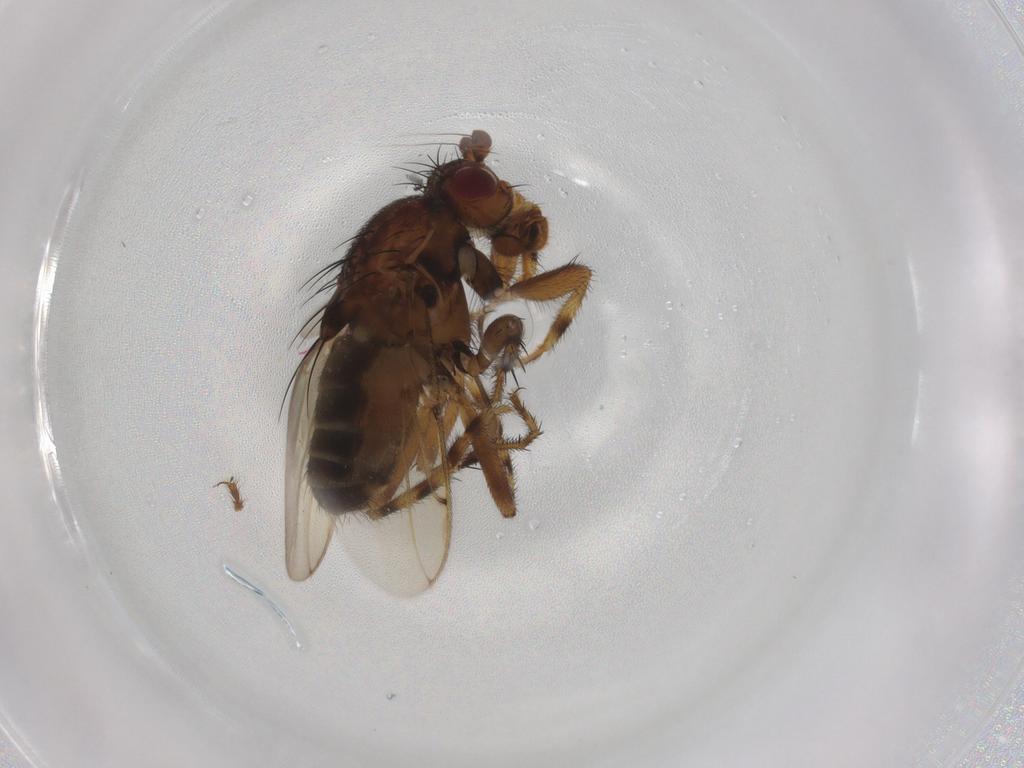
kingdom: Animalia
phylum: Arthropoda
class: Insecta
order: Diptera
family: Sphaeroceridae
